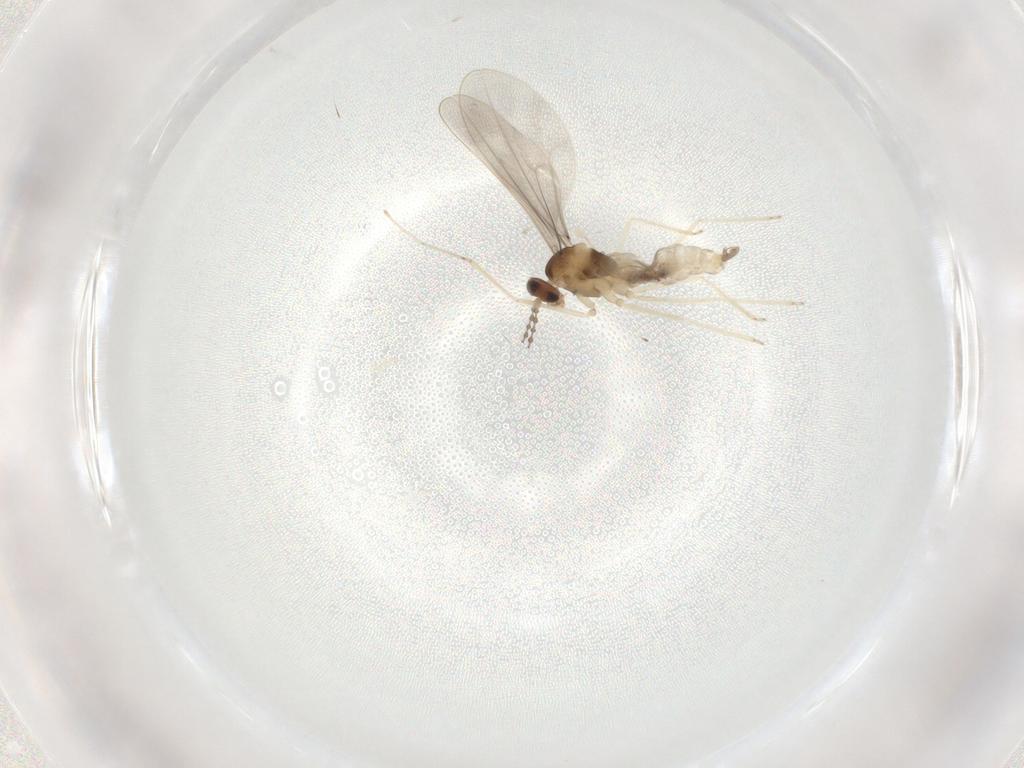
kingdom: Animalia
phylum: Arthropoda
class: Insecta
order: Diptera
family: Cecidomyiidae
